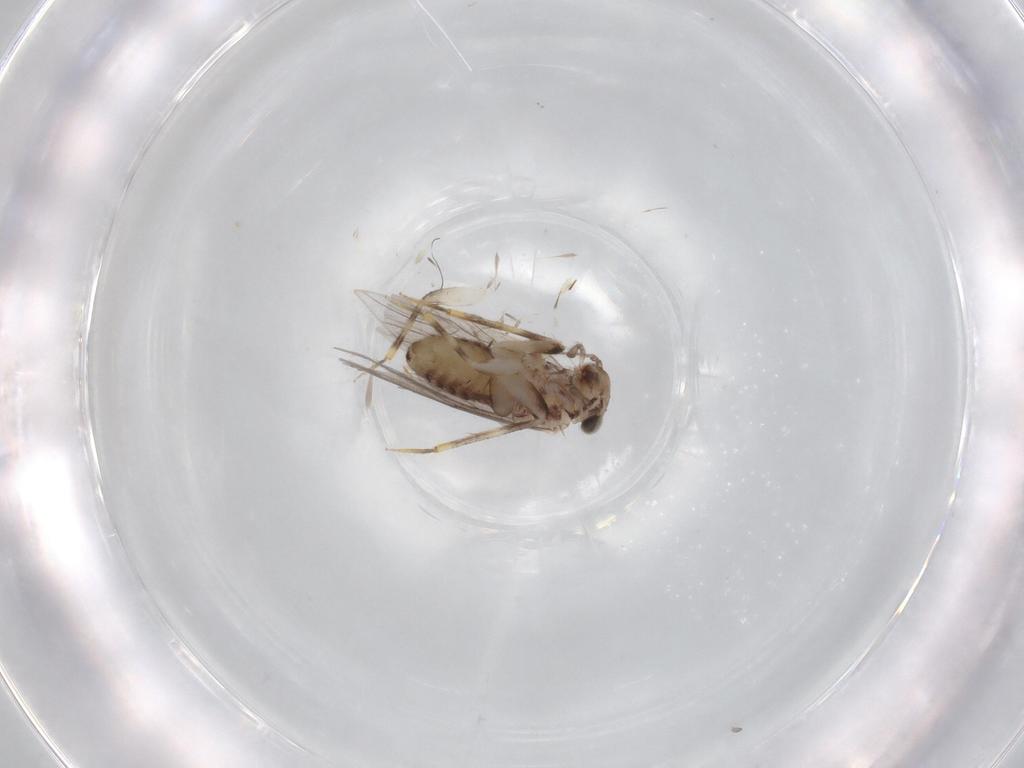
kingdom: Animalia
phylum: Arthropoda
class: Insecta
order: Psocodea
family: Lepidopsocidae
